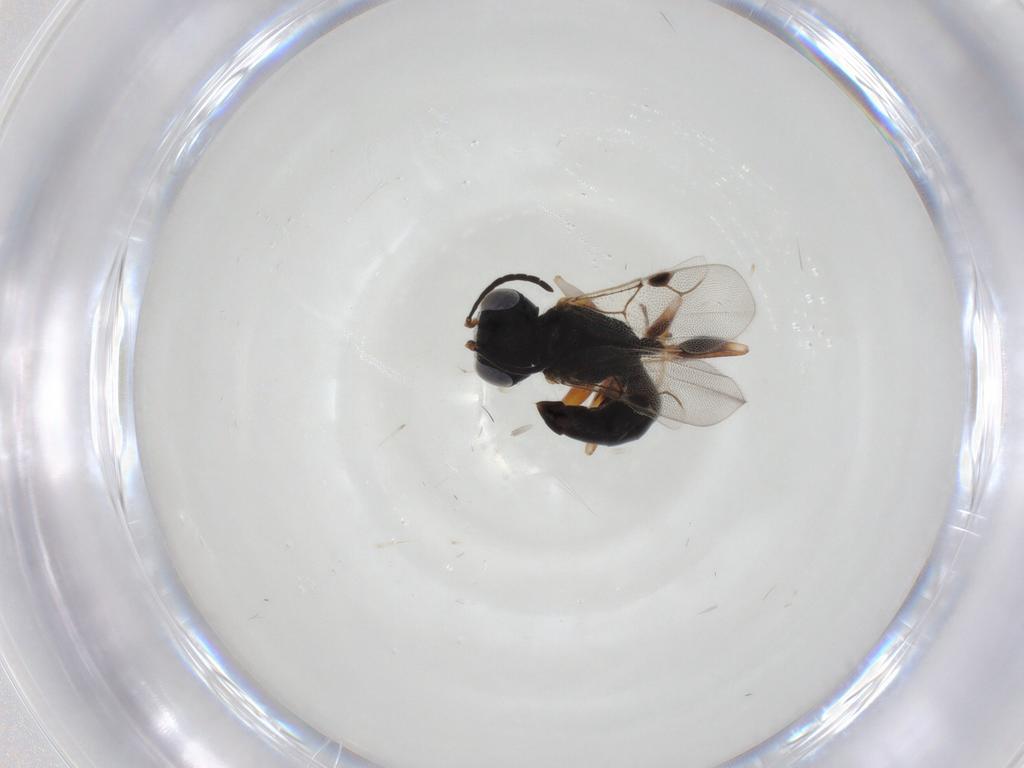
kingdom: Animalia
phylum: Arthropoda
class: Insecta
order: Hymenoptera
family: Dryinidae
